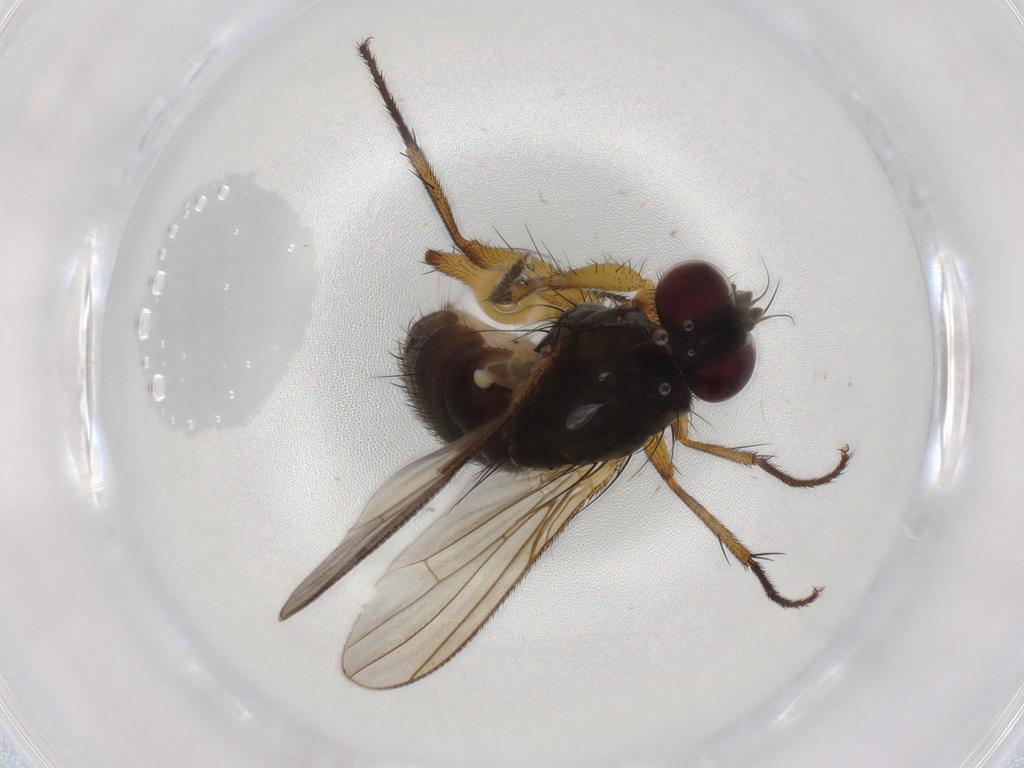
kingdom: Animalia
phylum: Arthropoda
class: Insecta
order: Diptera
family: Muscidae
